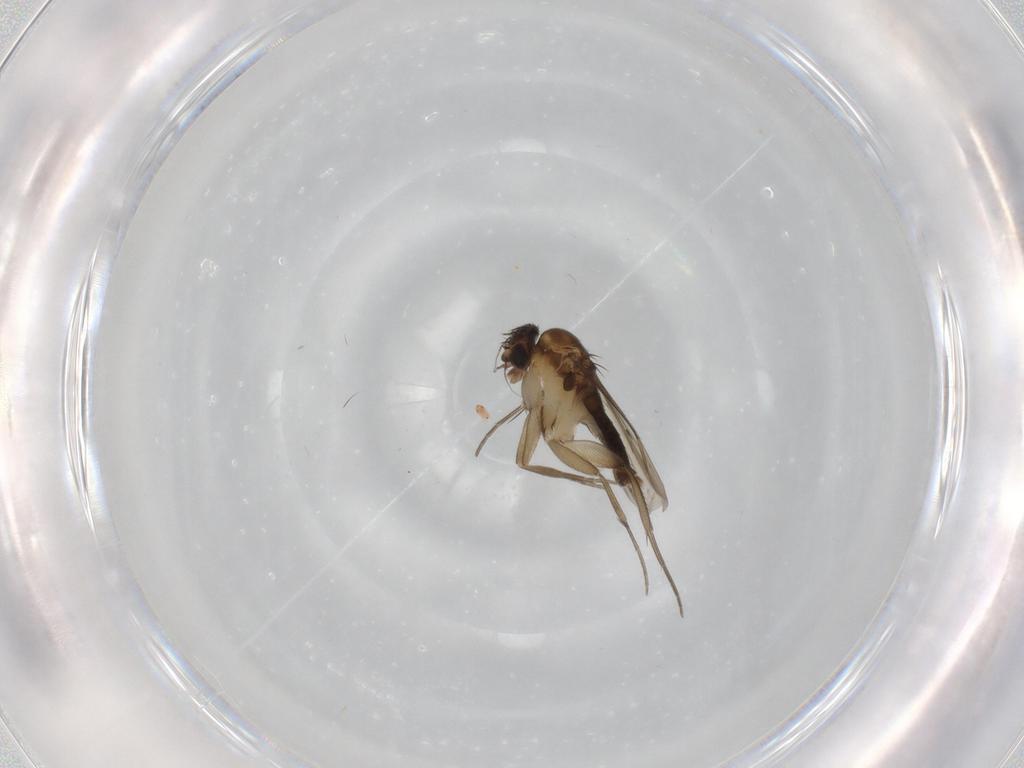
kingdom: Animalia
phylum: Arthropoda
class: Insecta
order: Diptera
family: Phoridae
